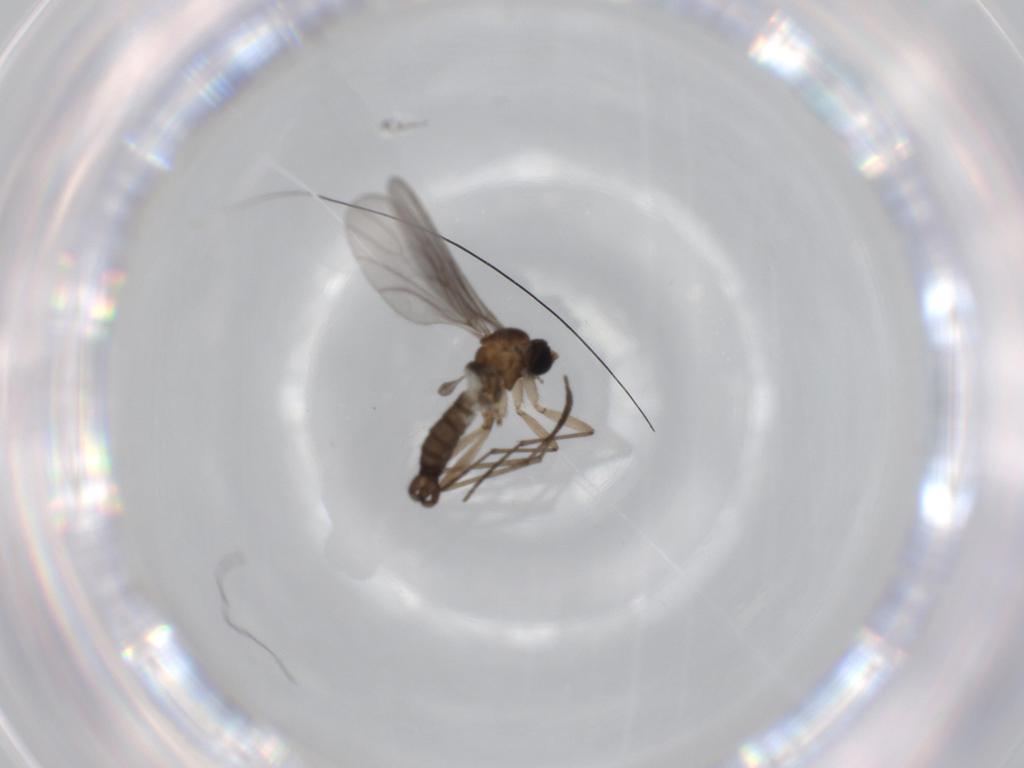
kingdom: Animalia
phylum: Arthropoda
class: Insecta
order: Diptera
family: Sciaridae
